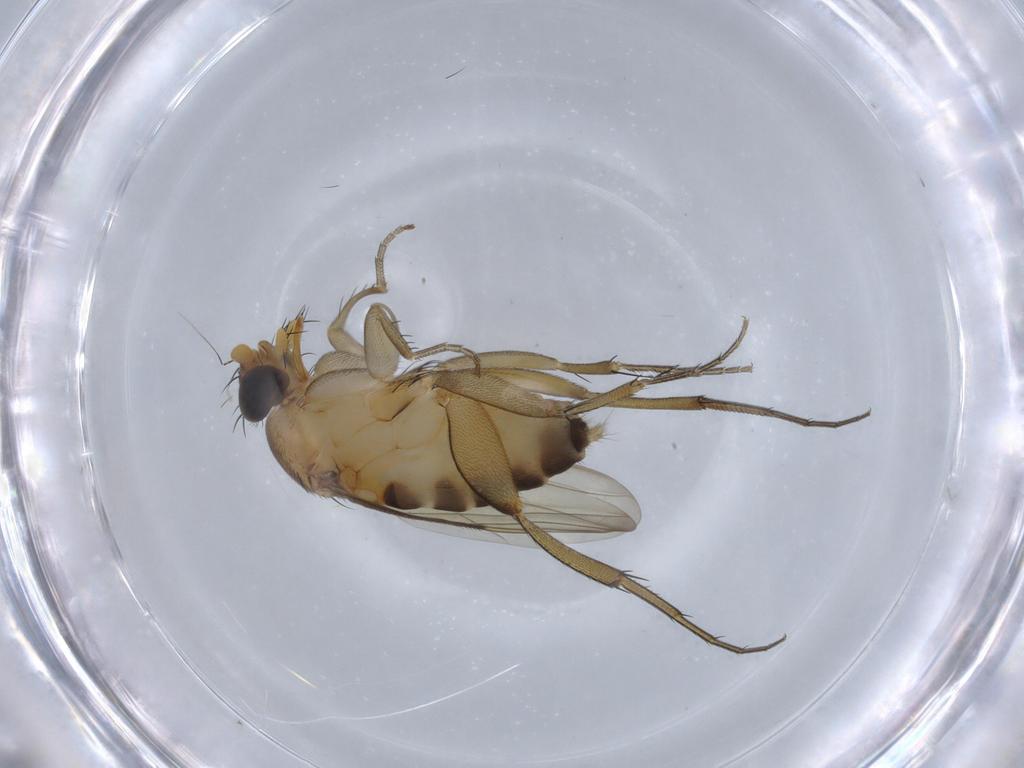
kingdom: Animalia
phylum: Arthropoda
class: Insecta
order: Diptera
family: Phoridae
